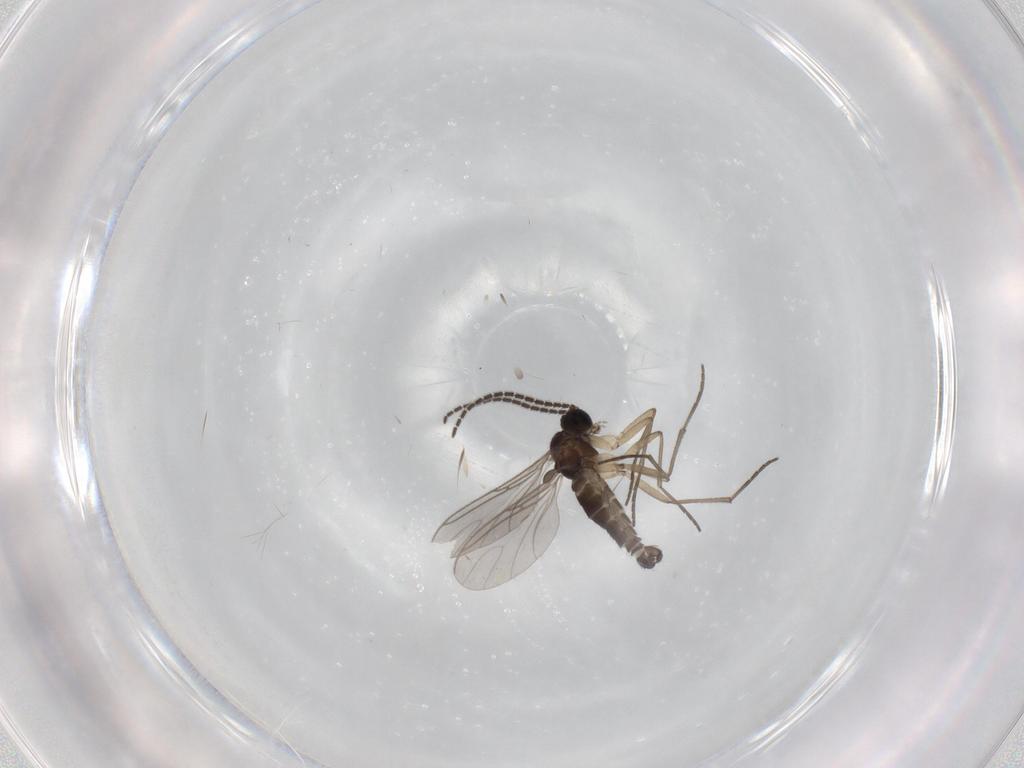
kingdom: Animalia
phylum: Arthropoda
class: Insecta
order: Diptera
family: Sciaridae
